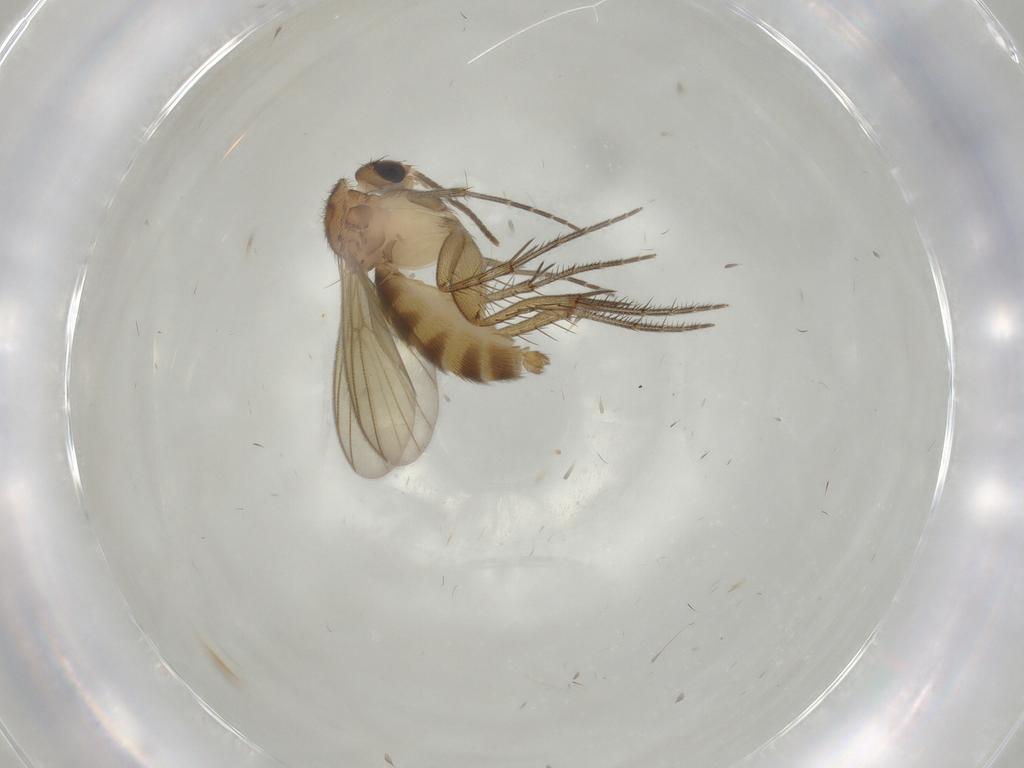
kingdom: Animalia
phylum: Arthropoda
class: Insecta
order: Diptera
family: Mycetophilidae
